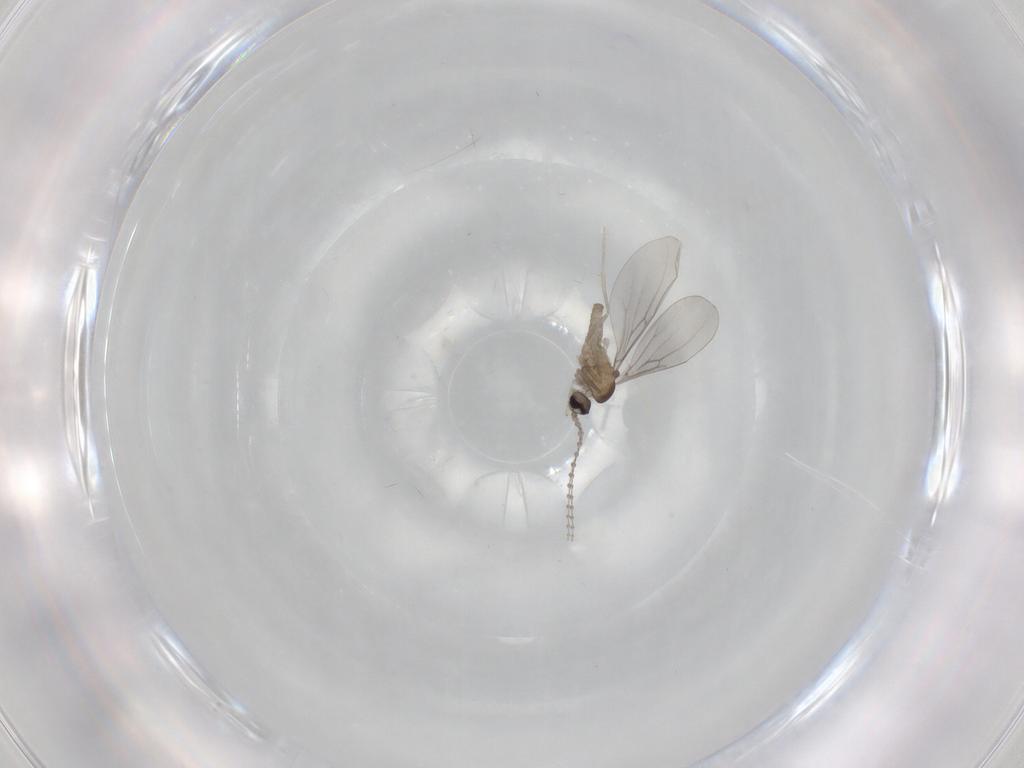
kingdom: Animalia
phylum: Arthropoda
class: Insecta
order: Diptera
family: Cecidomyiidae
